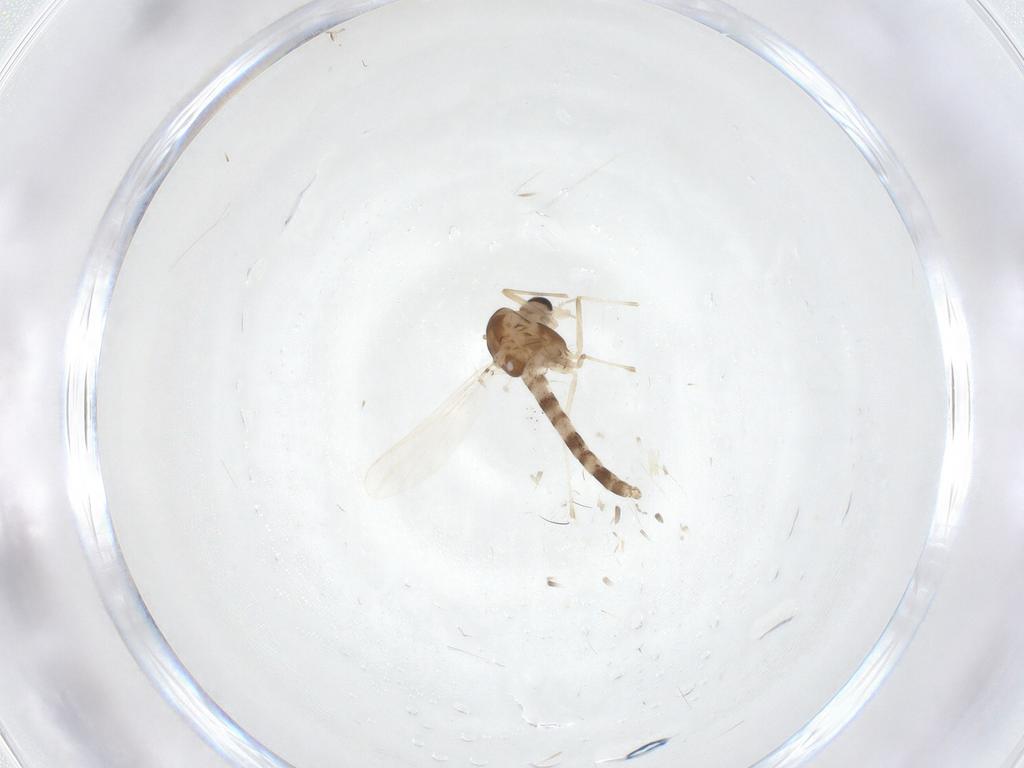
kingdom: Animalia
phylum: Arthropoda
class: Insecta
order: Diptera
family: Chironomidae
